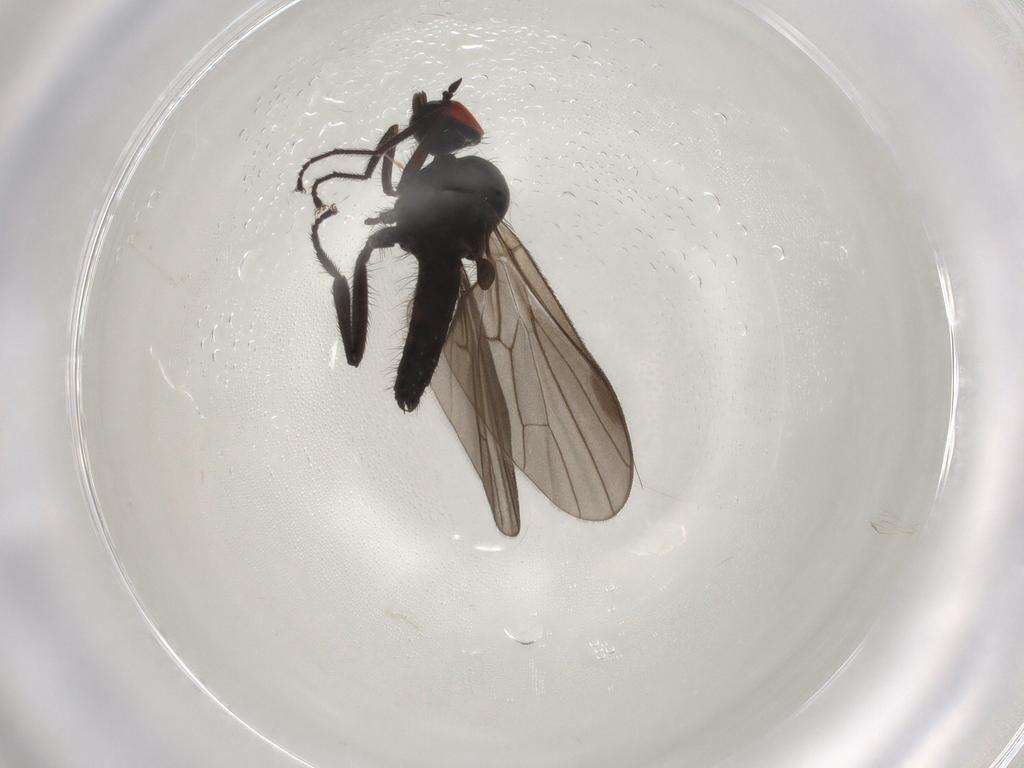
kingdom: Animalia
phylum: Arthropoda
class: Insecta
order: Diptera
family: Hybotidae
